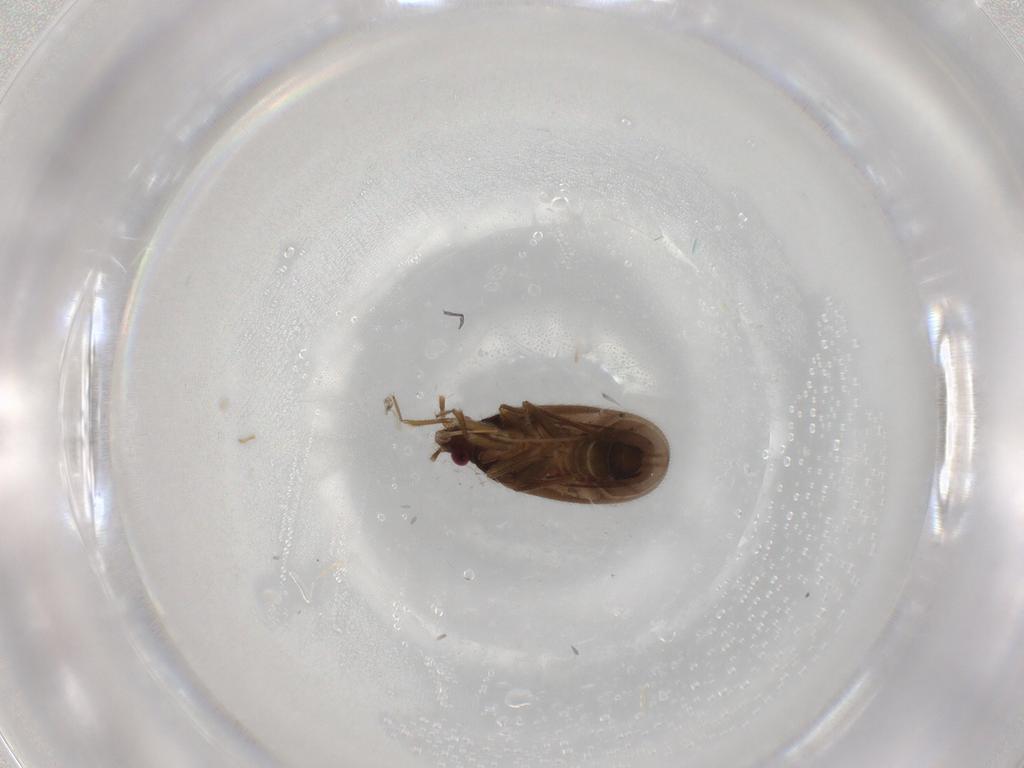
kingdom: Animalia
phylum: Arthropoda
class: Insecta
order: Hemiptera
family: Ceratocombidae
